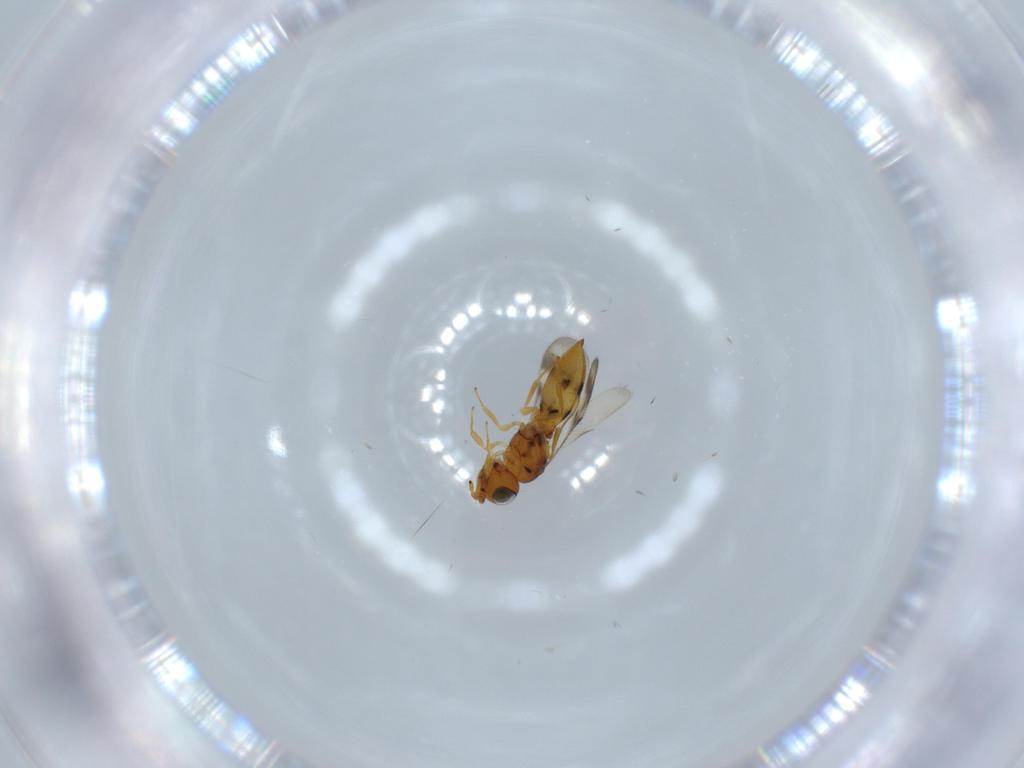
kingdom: Animalia
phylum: Arthropoda
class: Insecta
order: Hymenoptera
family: Scelionidae
